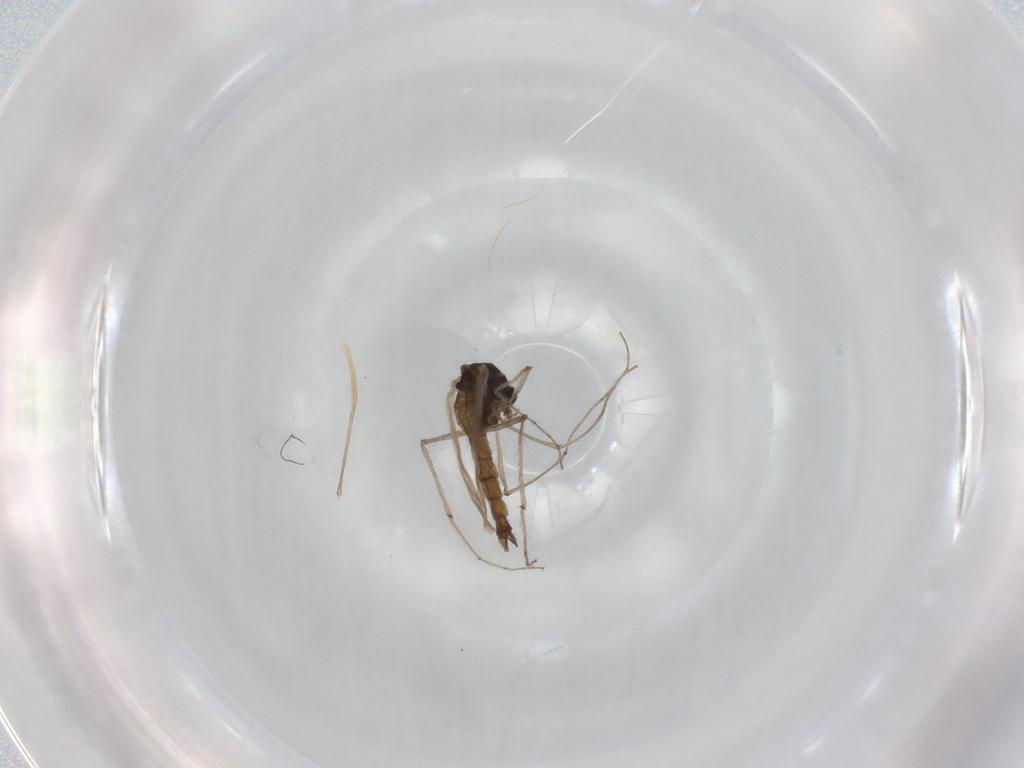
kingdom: Animalia
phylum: Arthropoda
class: Insecta
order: Diptera
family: Chironomidae
